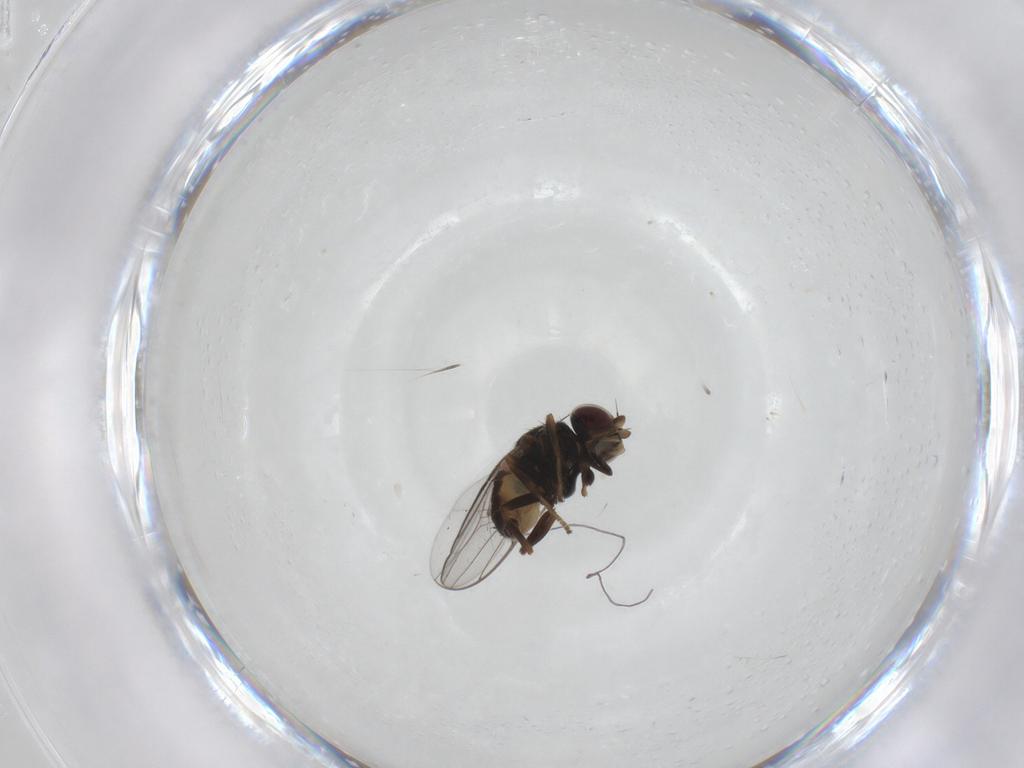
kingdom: Animalia
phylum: Arthropoda
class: Insecta
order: Diptera
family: Chloropidae
